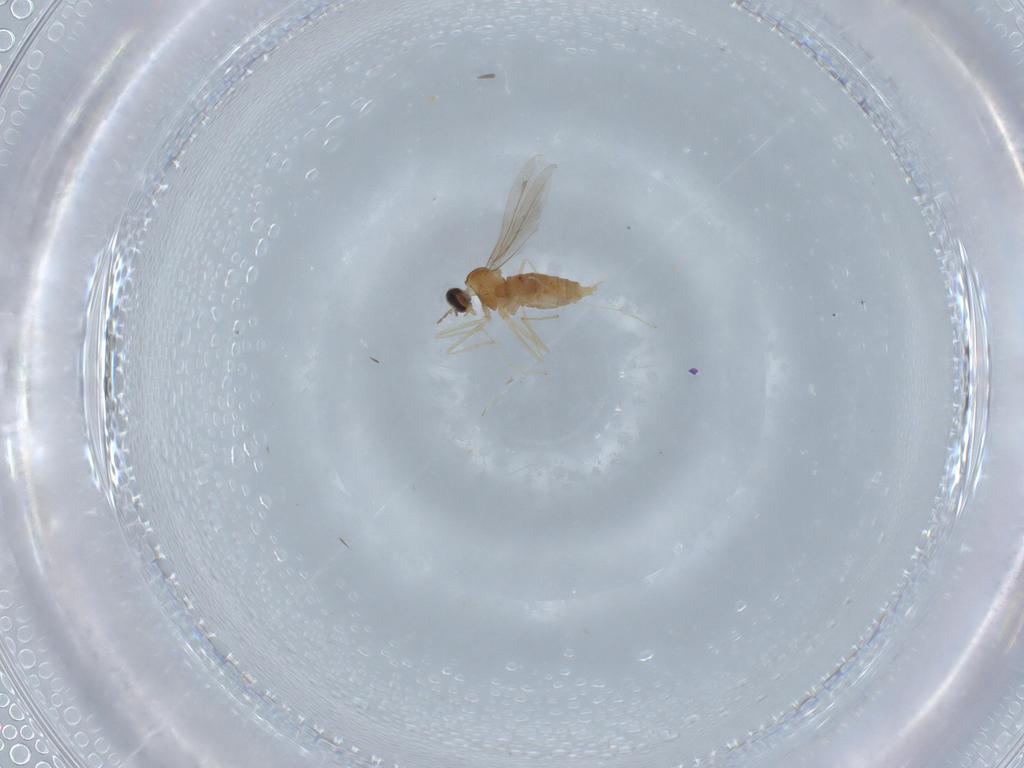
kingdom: Animalia
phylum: Arthropoda
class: Insecta
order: Diptera
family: Cecidomyiidae
